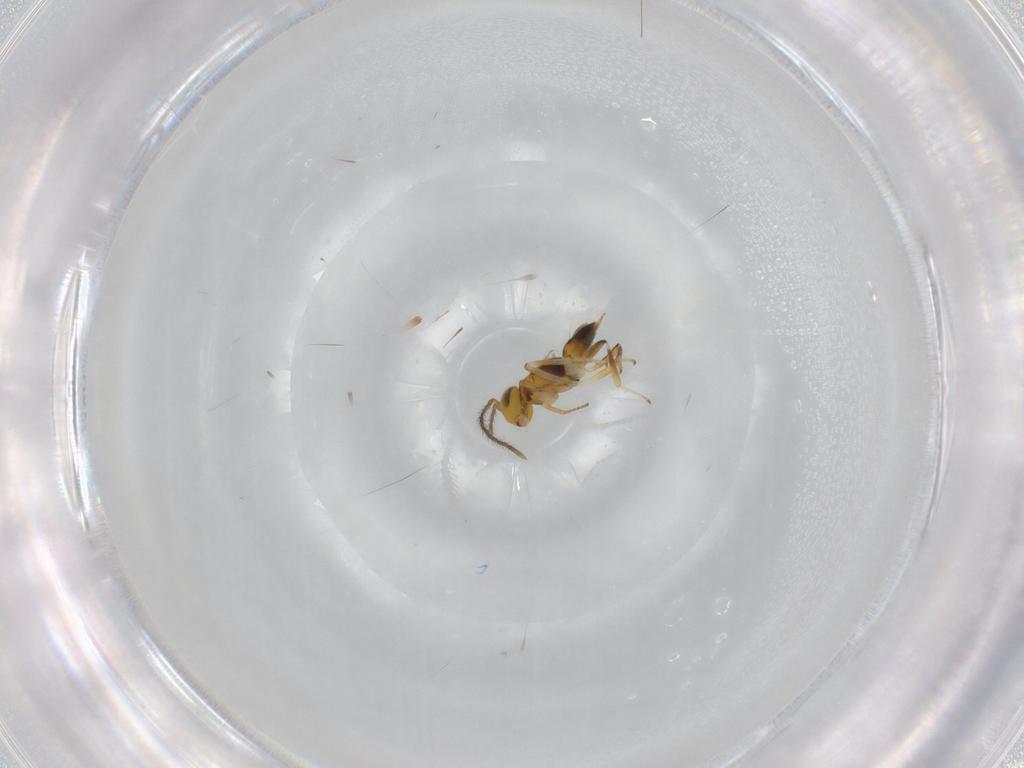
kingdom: Animalia
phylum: Arthropoda
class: Insecta
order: Hymenoptera
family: Encyrtidae
